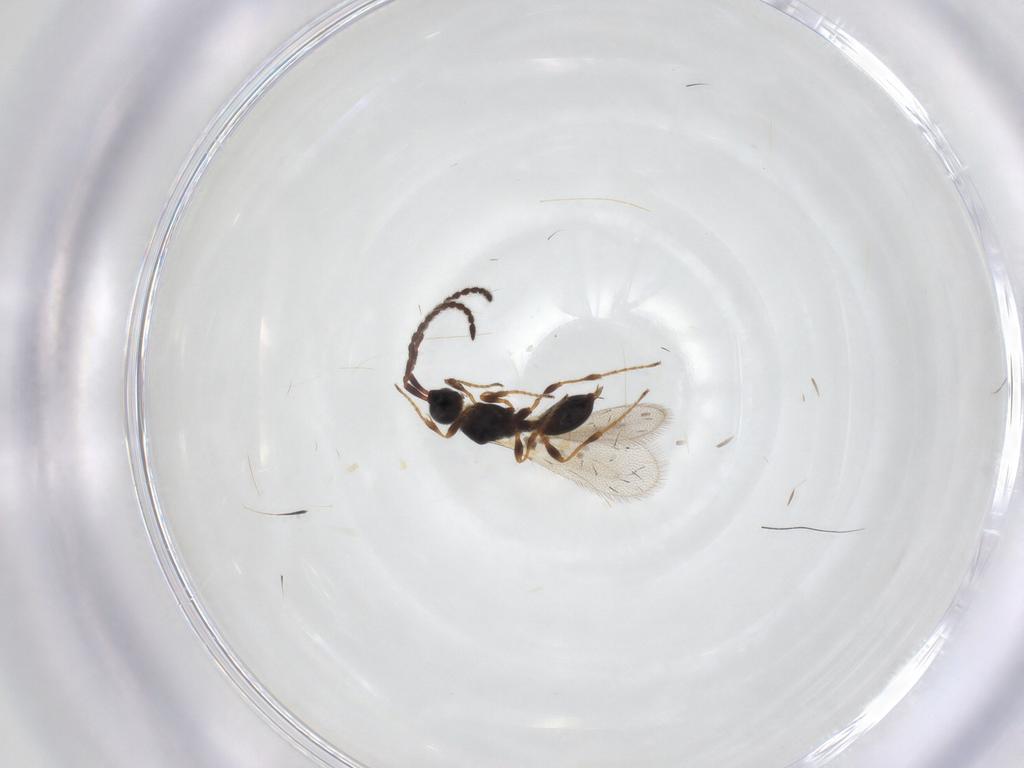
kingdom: Animalia
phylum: Arthropoda
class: Insecta
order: Hymenoptera
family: Diapriidae
